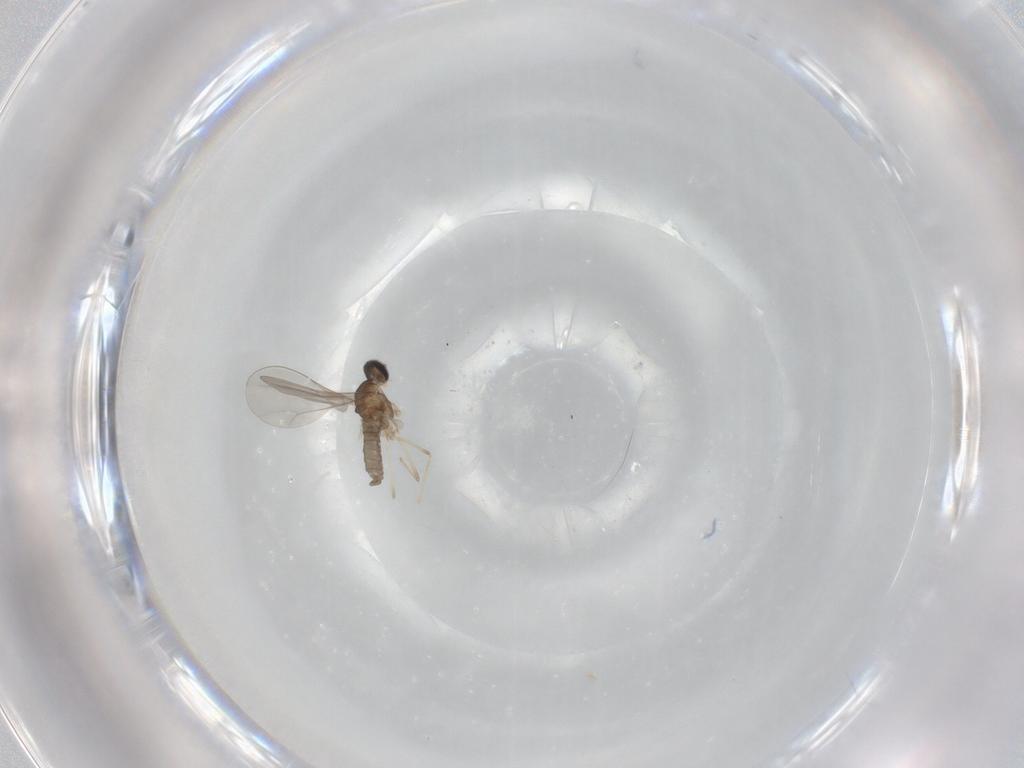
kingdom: Animalia
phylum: Arthropoda
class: Insecta
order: Diptera
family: Cecidomyiidae
